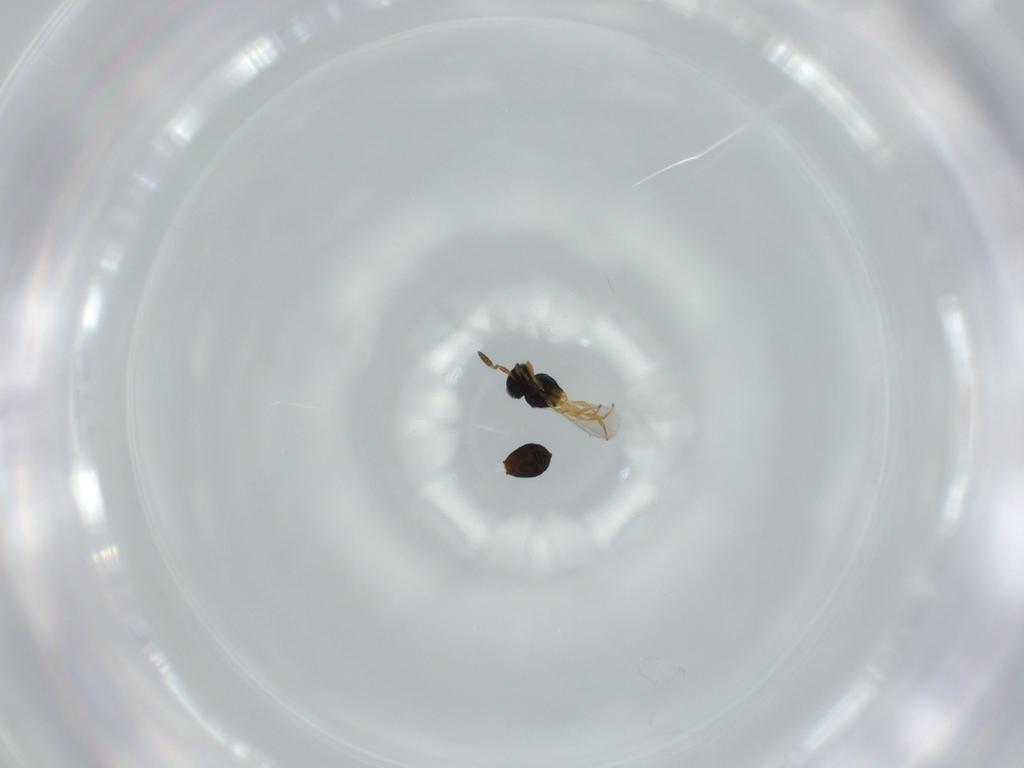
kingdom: Animalia
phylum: Arthropoda
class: Insecta
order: Hymenoptera
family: Scelionidae
